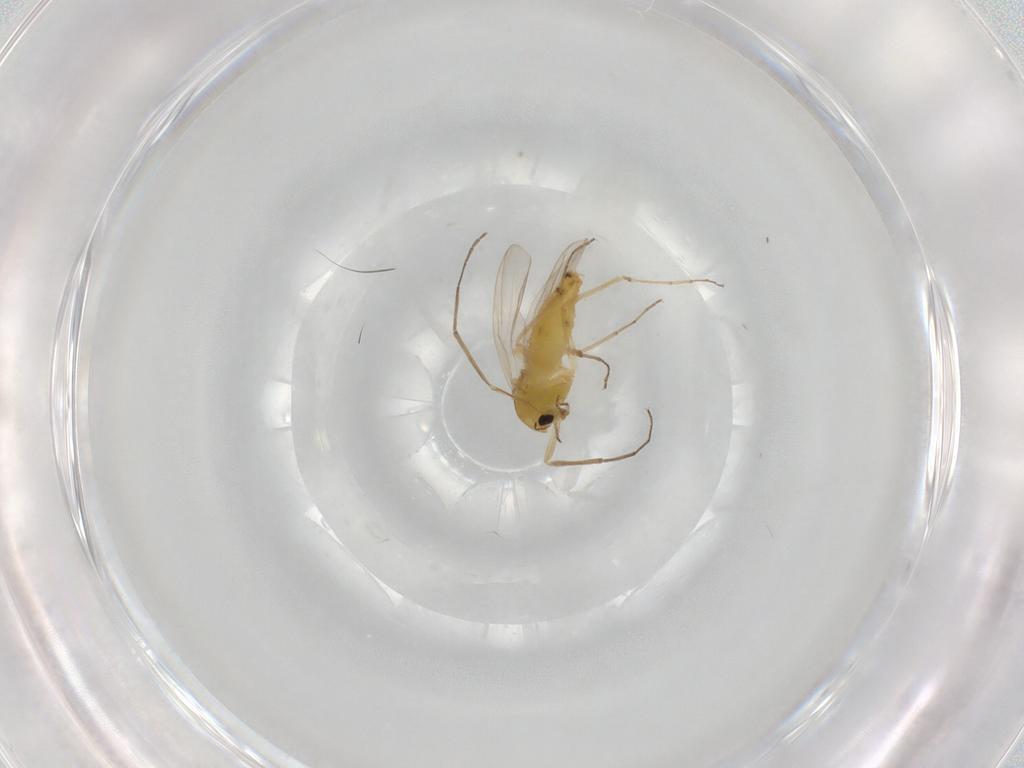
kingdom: Animalia
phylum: Arthropoda
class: Insecta
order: Diptera
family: Chironomidae
